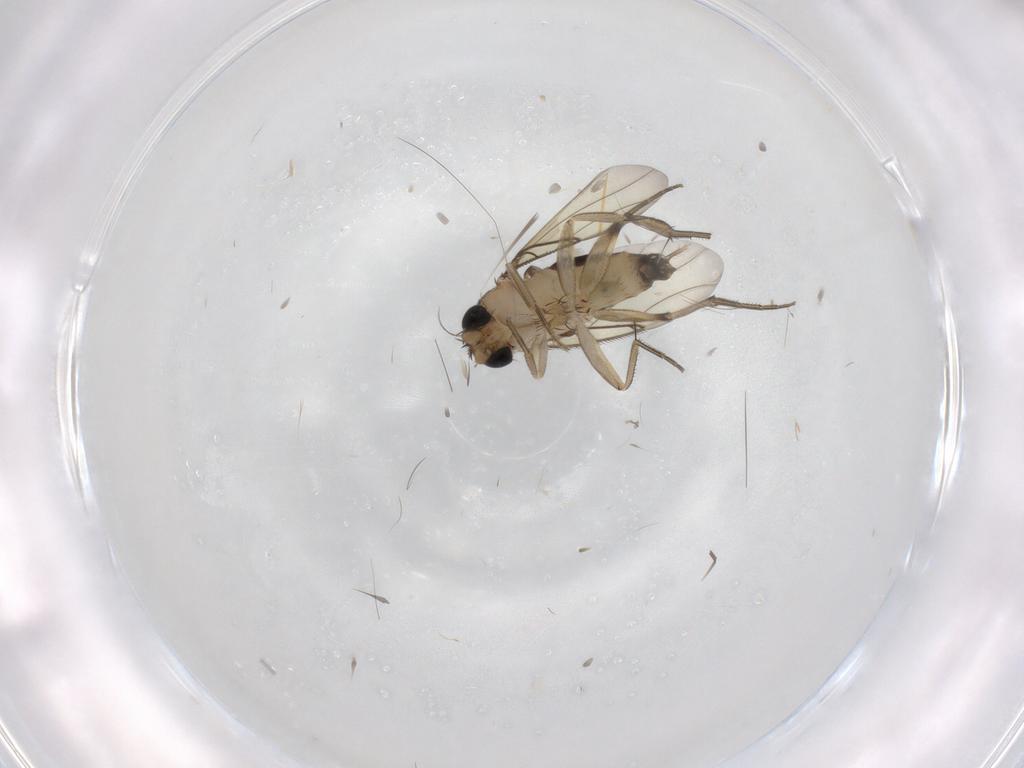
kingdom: Animalia
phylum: Arthropoda
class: Insecta
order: Diptera
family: Phoridae
